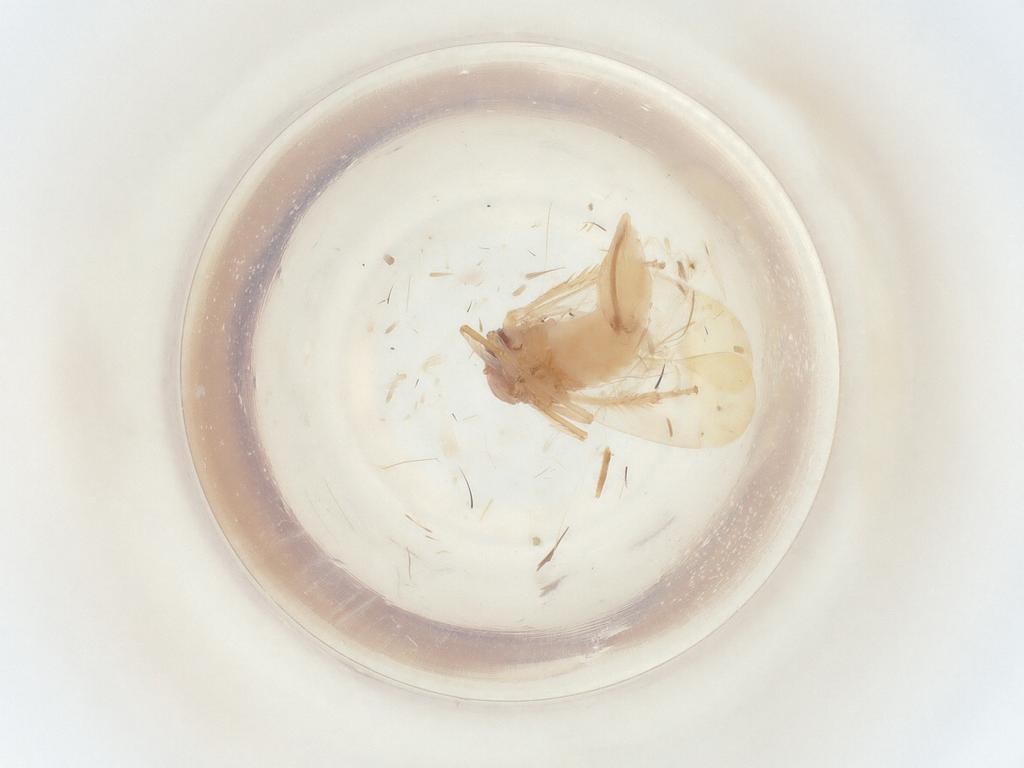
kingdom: Animalia
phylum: Arthropoda
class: Insecta
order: Hemiptera
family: Cicadellidae
